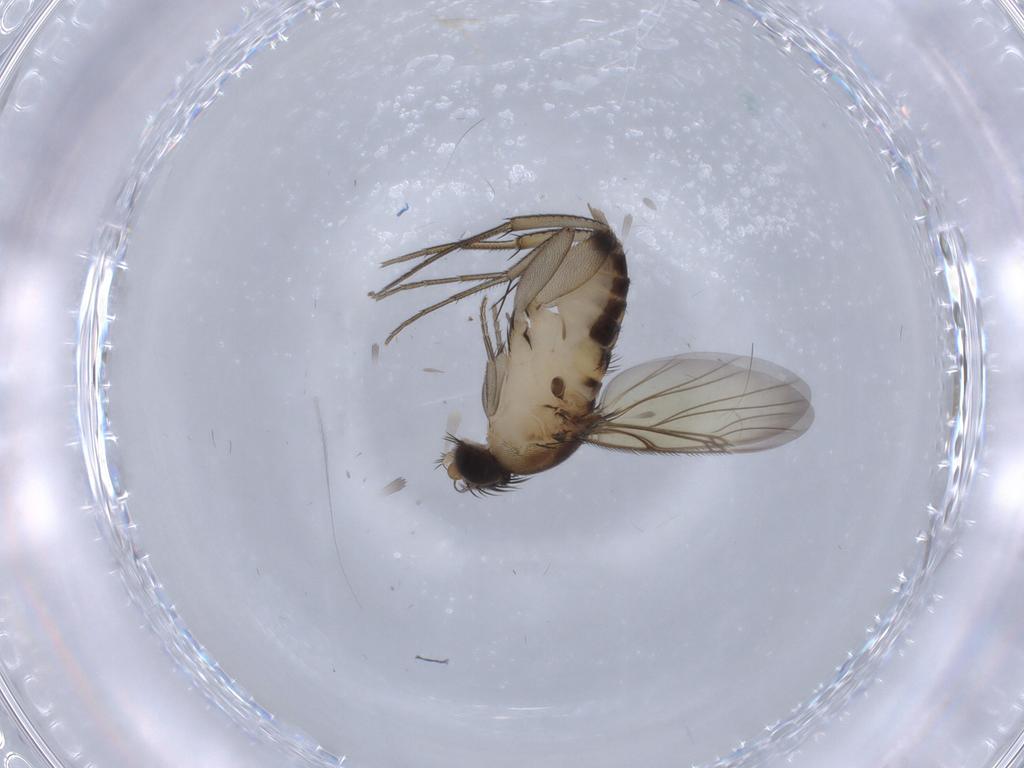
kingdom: Animalia
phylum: Arthropoda
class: Insecta
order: Diptera
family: Phoridae
